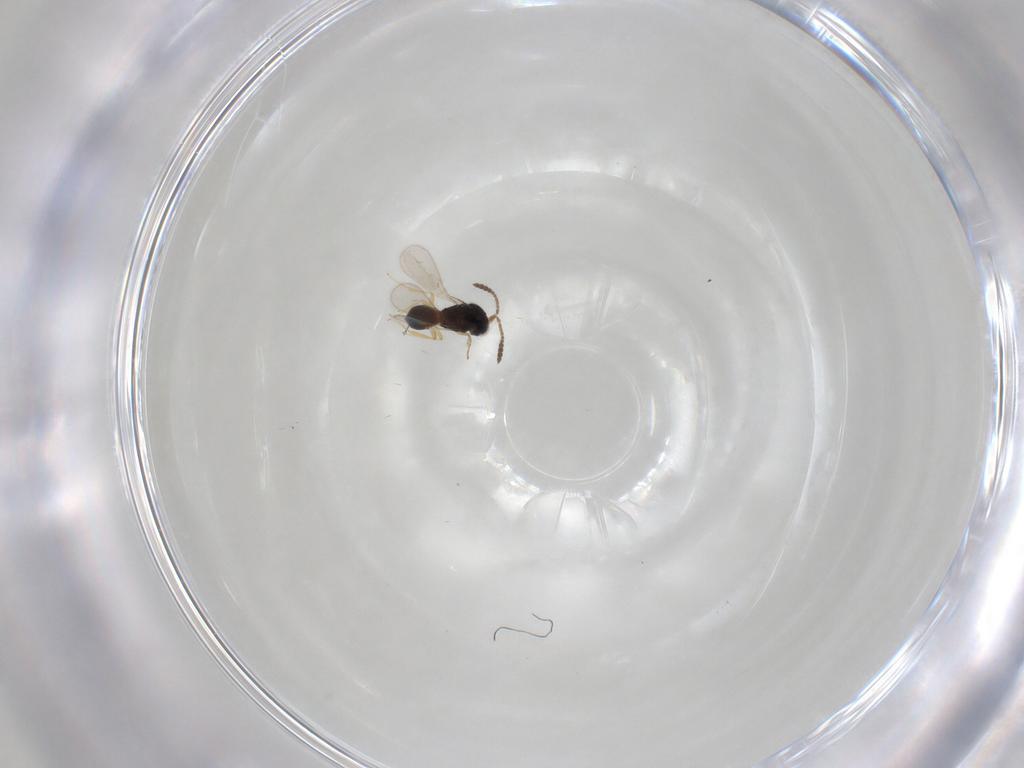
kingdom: Animalia
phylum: Arthropoda
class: Insecta
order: Hymenoptera
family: Scelionidae
